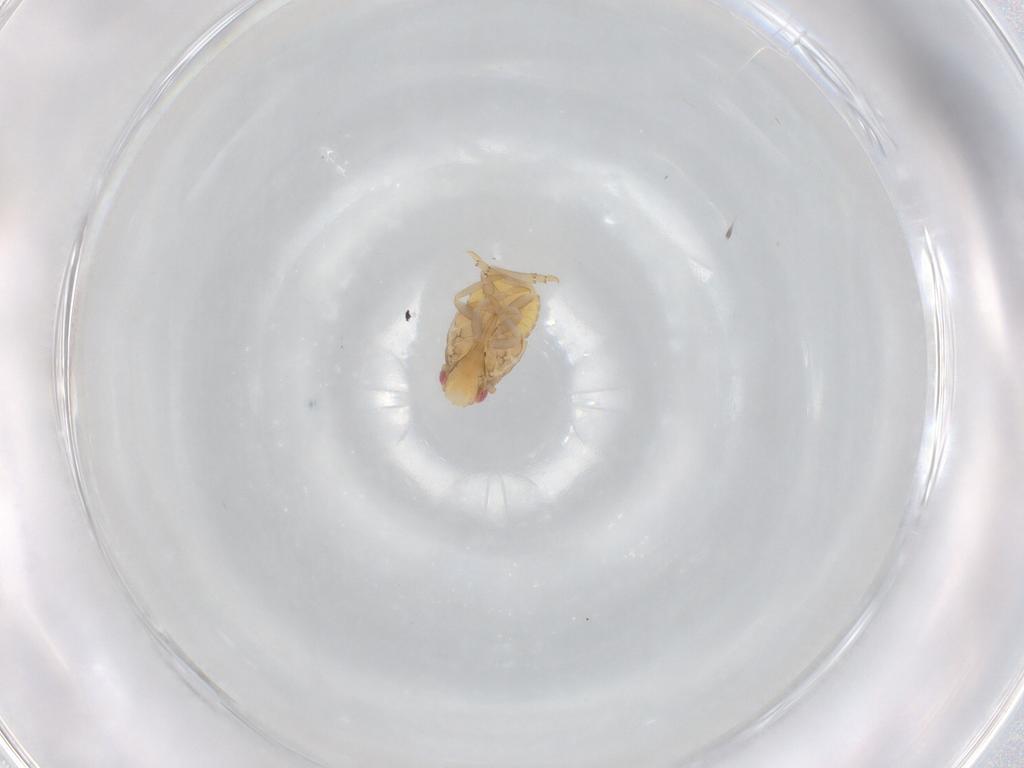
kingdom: Animalia
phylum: Arthropoda
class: Insecta
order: Hemiptera
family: Flatidae
